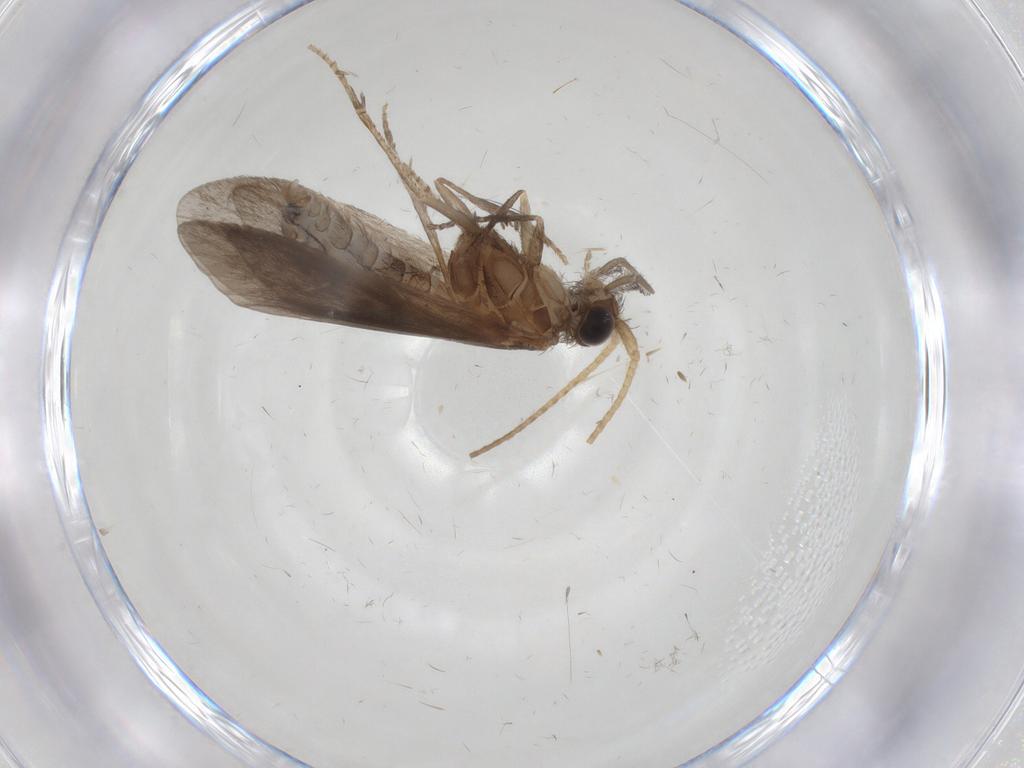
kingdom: Animalia
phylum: Arthropoda
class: Insecta
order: Trichoptera
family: Helicopsychidae
